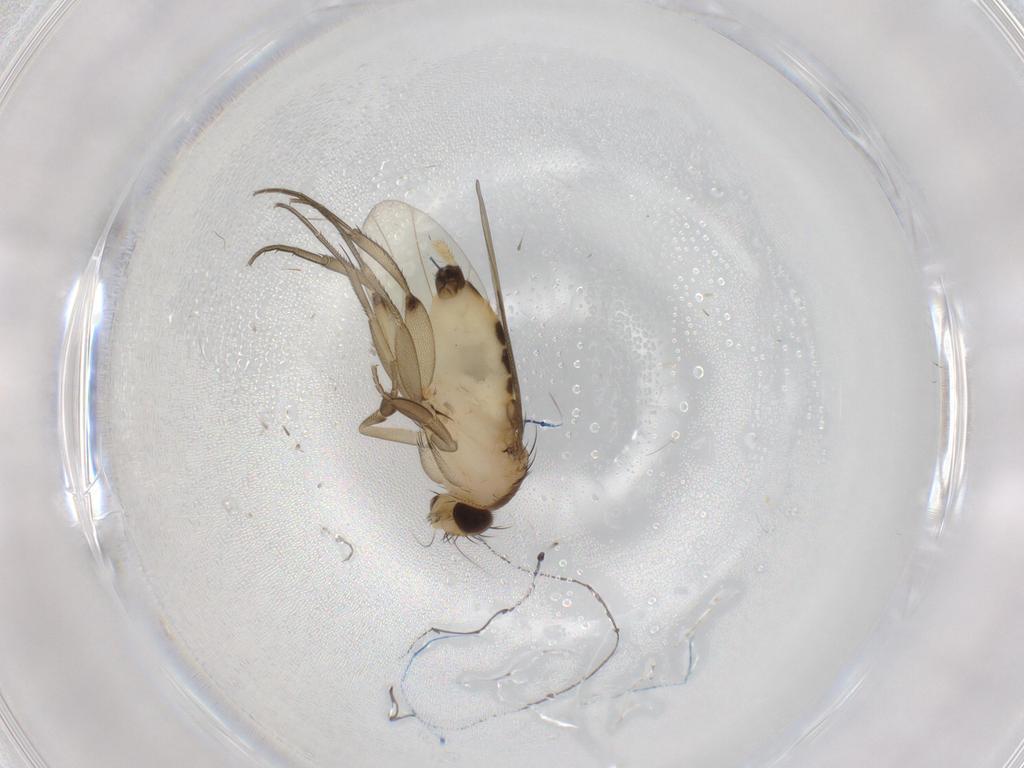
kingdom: Animalia
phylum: Arthropoda
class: Insecta
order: Diptera
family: Phoridae
